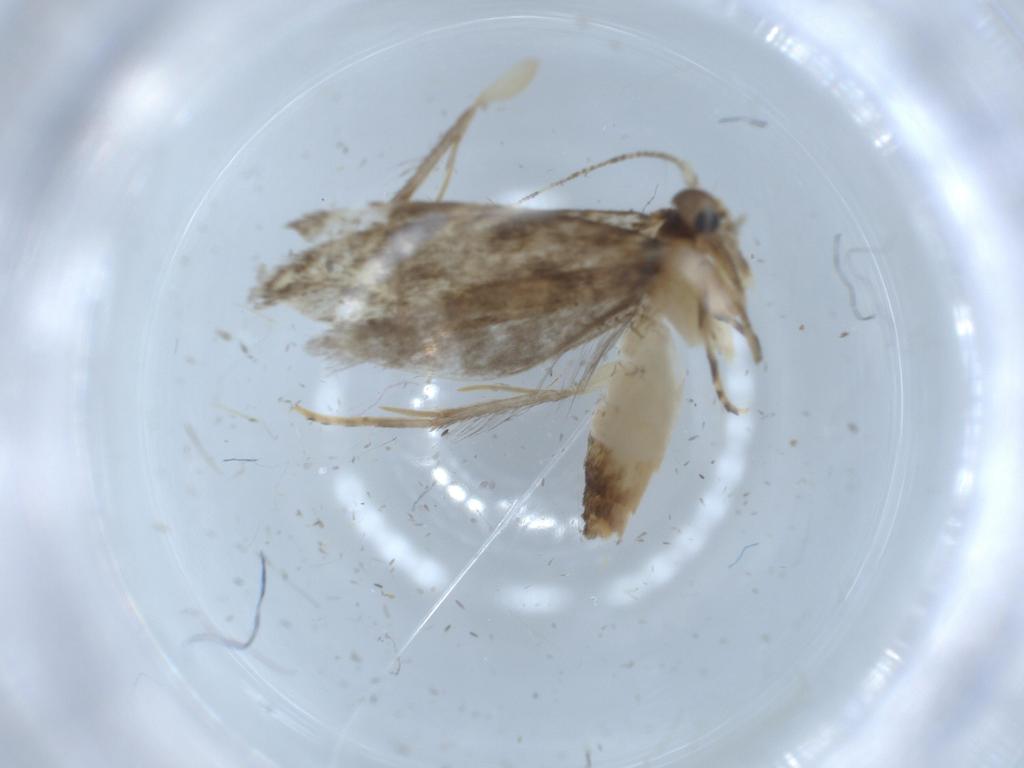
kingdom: Animalia
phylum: Arthropoda
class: Insecta
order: Lepidoptera
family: Tineidae
